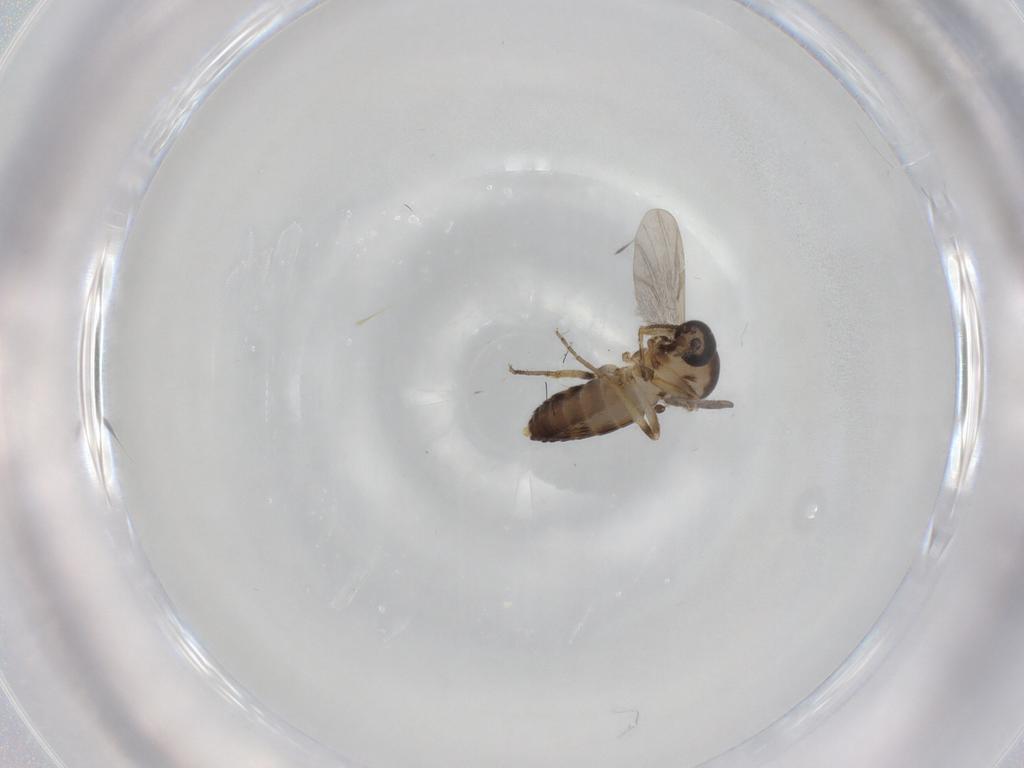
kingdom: Animalia
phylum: Arthropoda
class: Insecta
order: Diptera
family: Ceratopogonidae
